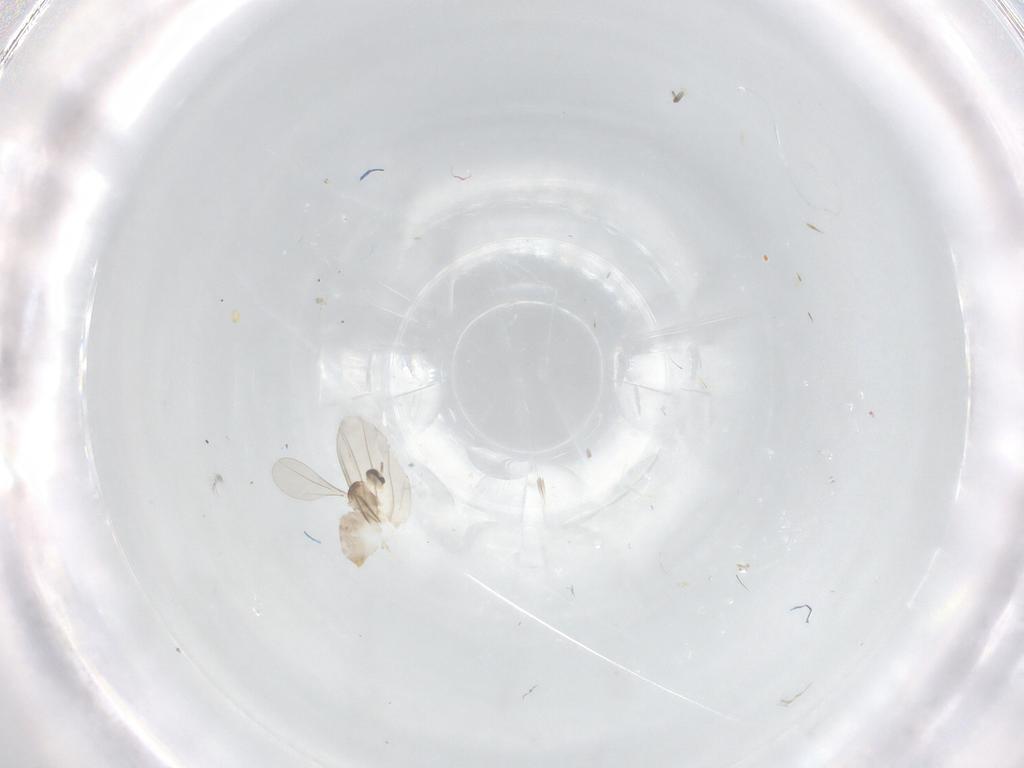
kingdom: Animalia
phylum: Arthropoda
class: Insecta
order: Diptera
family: Cecidomyiidae
